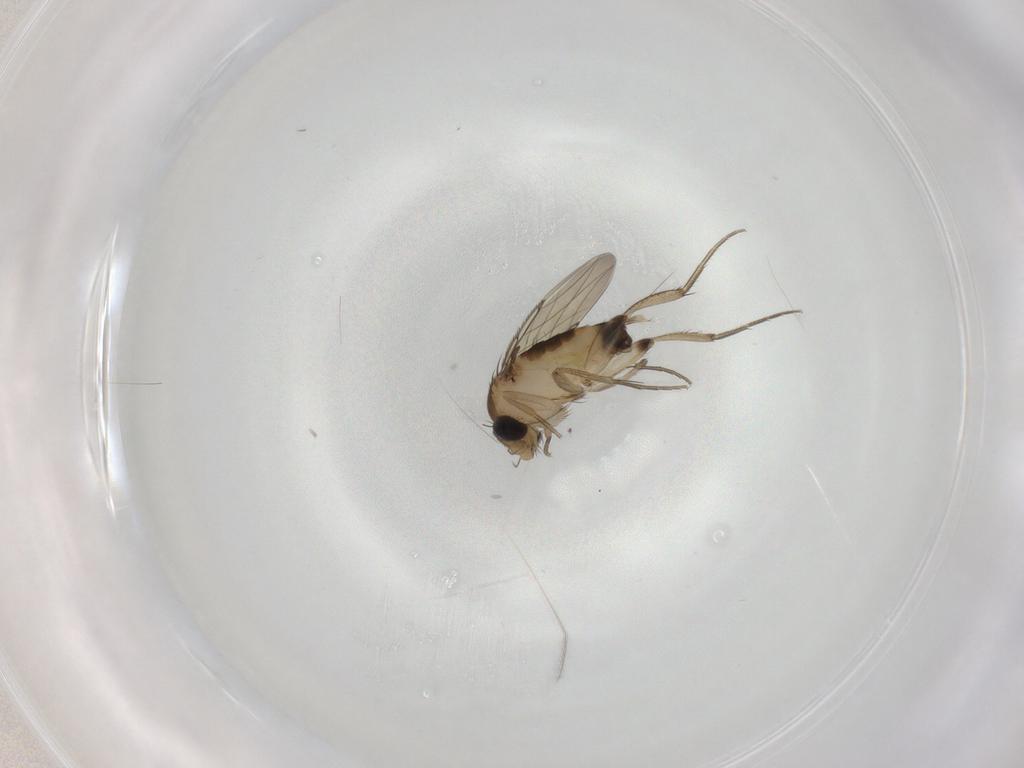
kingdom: Animalia
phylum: Arthropoda
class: Insecta
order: Diptera
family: Phoridae
